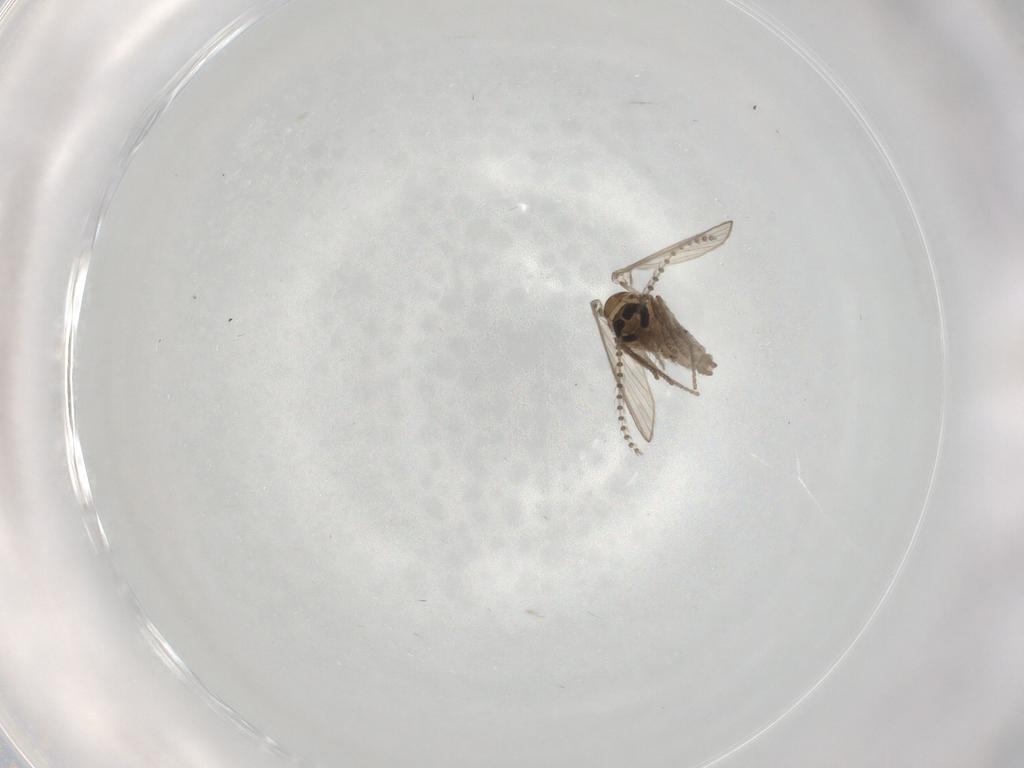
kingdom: Animalia
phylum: Arthropoda
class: Insecta
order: Diptera
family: Psychodidae
